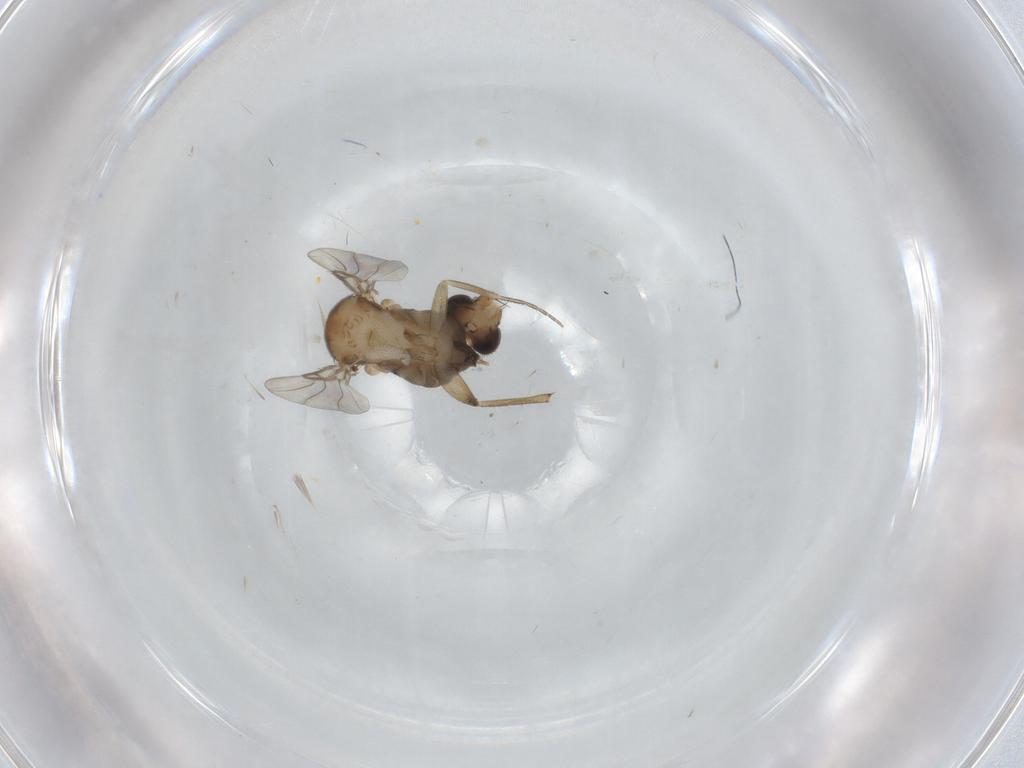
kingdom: Animalia
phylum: Arthropoda
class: Insecta
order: Diptera
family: Phoridae
